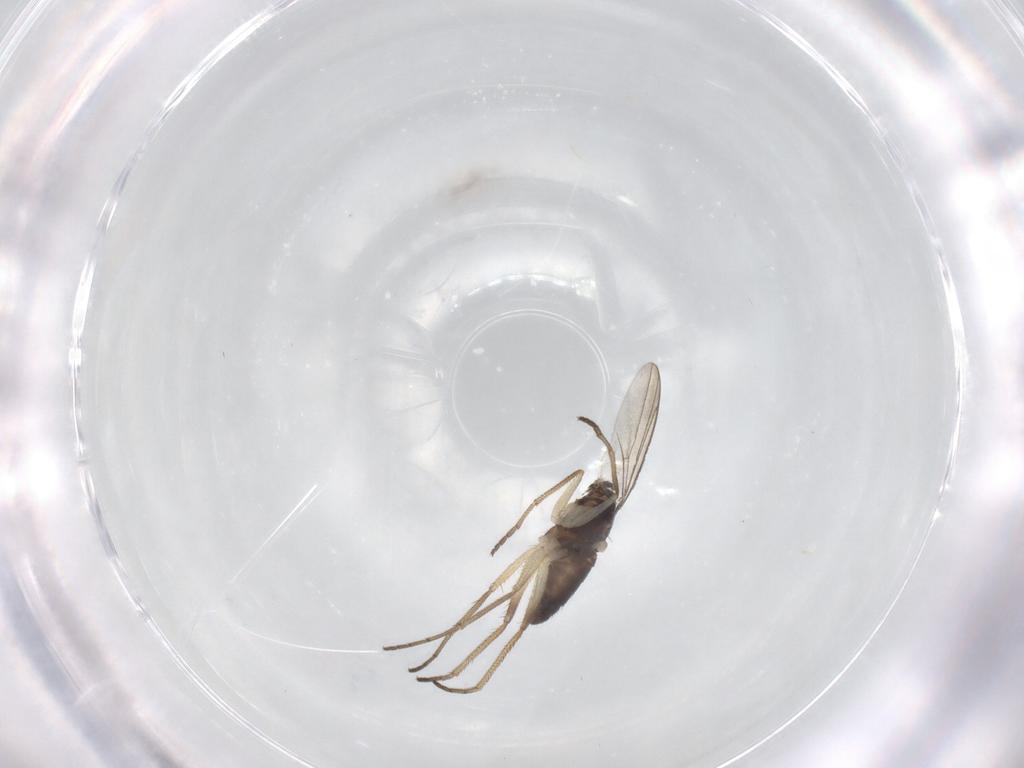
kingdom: Animalia
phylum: Arthropoda
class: Insecta
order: Diptera
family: Dolichopodidae
